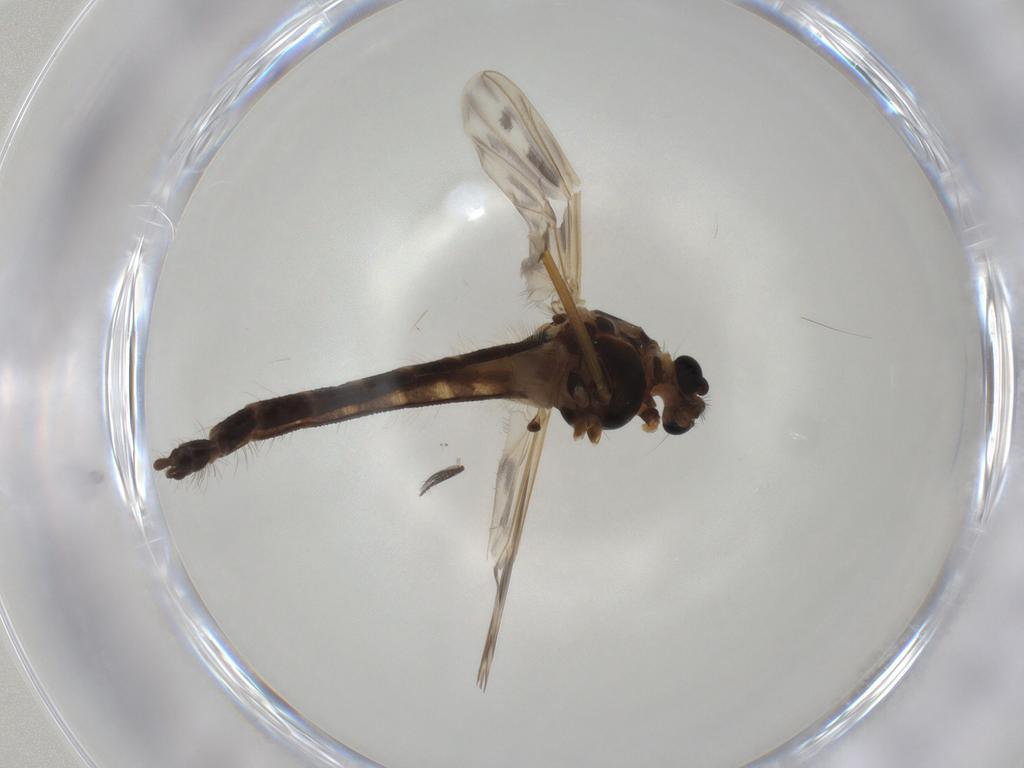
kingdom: Animalia
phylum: Arthropoda
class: Insecta
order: Diptera
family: Chironomidae
